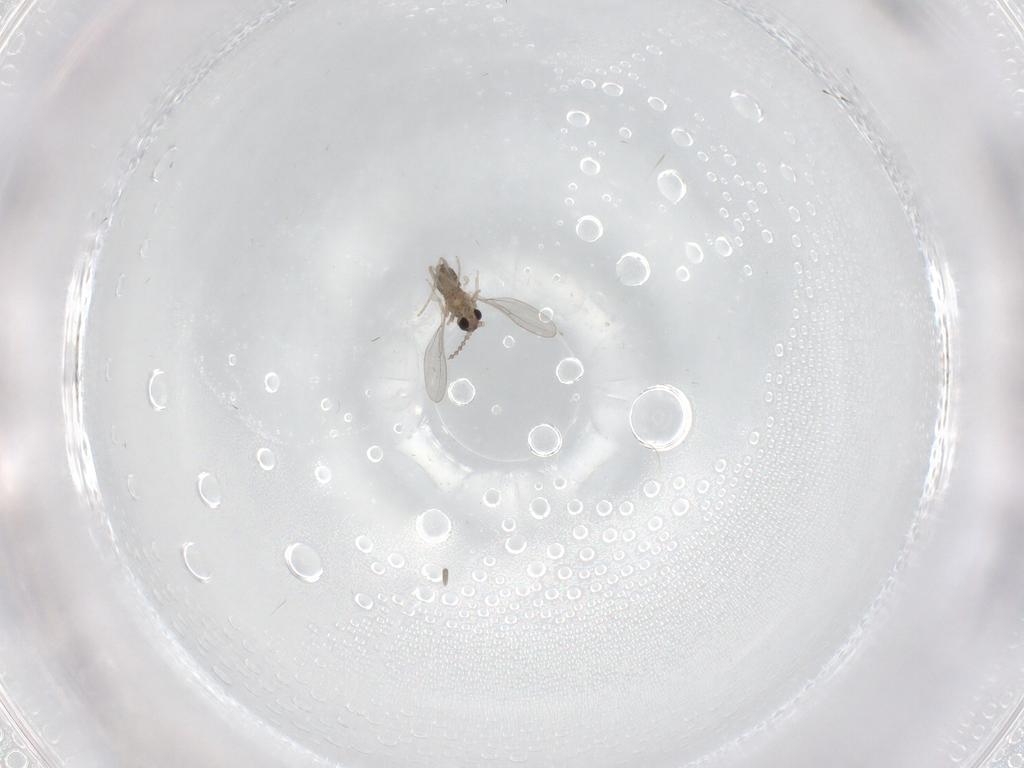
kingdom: Animalia
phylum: Arthropoda
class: Insecta
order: Diptera
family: Cecidomyiidae
